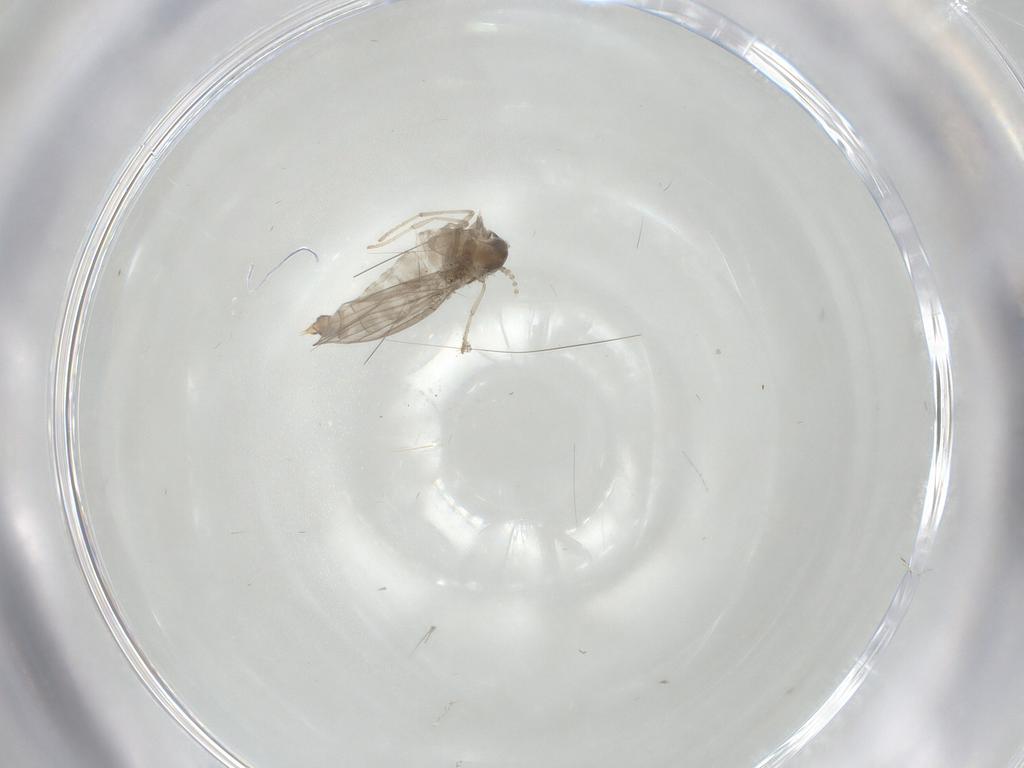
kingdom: Animalia
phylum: Arthropoda
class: Insecta
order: Diptera
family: Psychodidae
